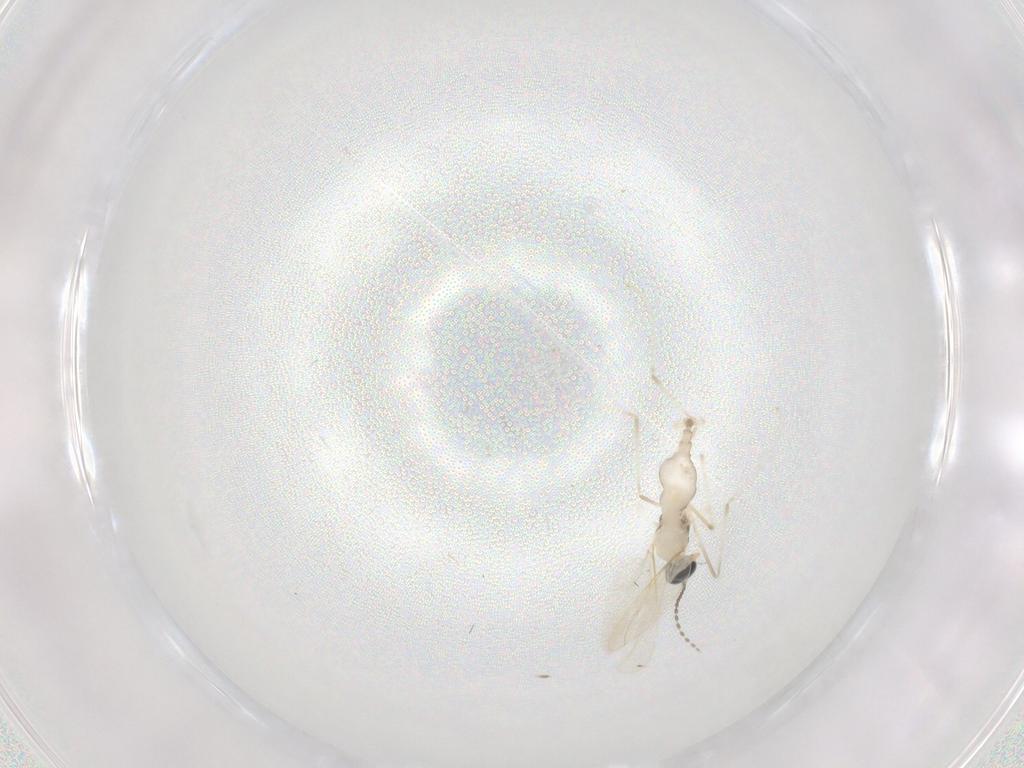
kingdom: Animalia
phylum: Arthropoda
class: Insecta
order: Diptera
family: Cecidomyiidae
